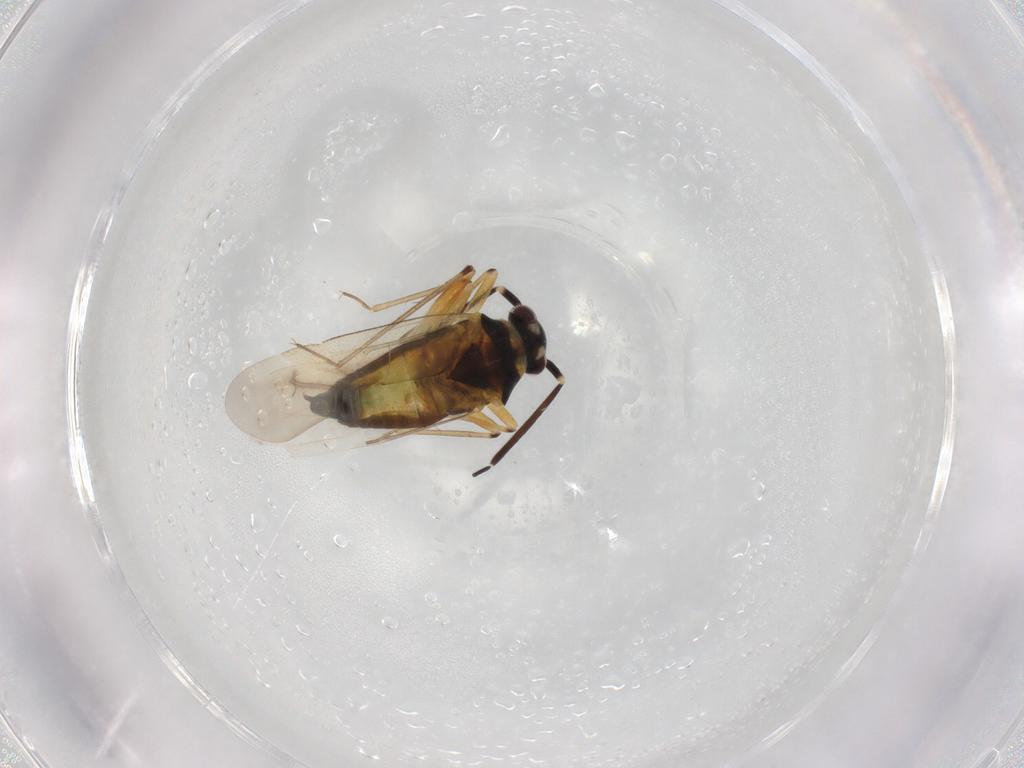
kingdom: Animalia
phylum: Arthropoda
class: Insecta
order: Hemiptera
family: Miridae
